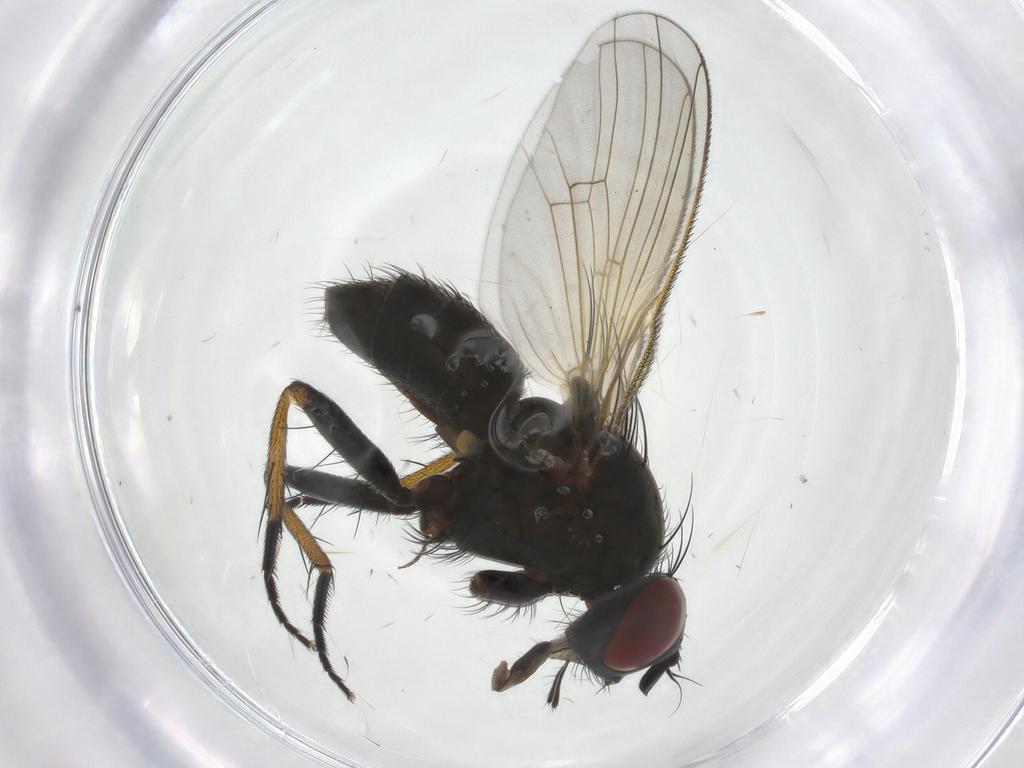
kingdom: Animalia
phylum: Arthropoda
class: Insecta
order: Diptera
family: Muscidae
